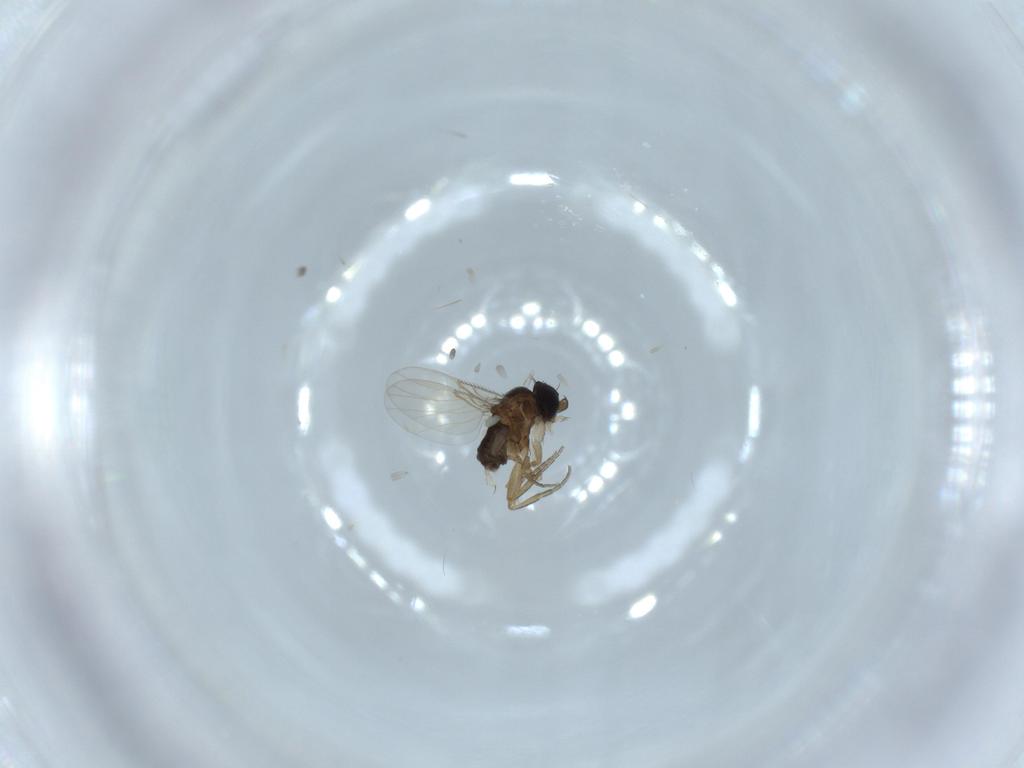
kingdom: Animalia
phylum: Arthropoda
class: Insecta
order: Diptera
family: Phoridae
